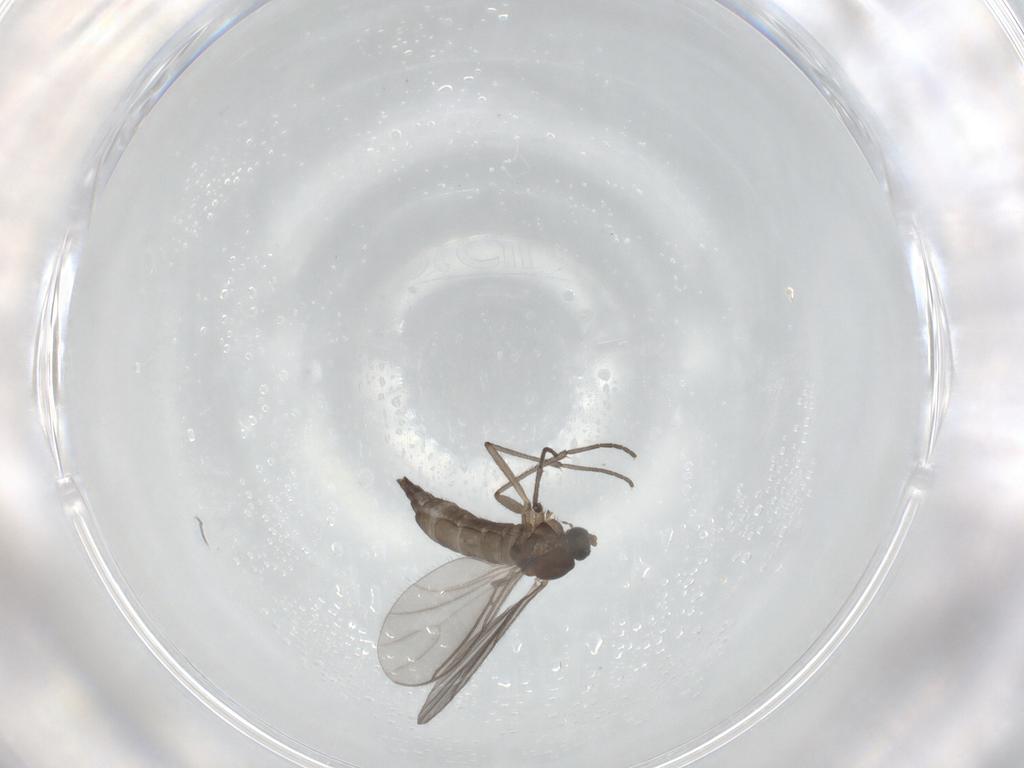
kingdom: Animalia
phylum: Arthropoda
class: Insecta
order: Diptera
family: Sciaridae
